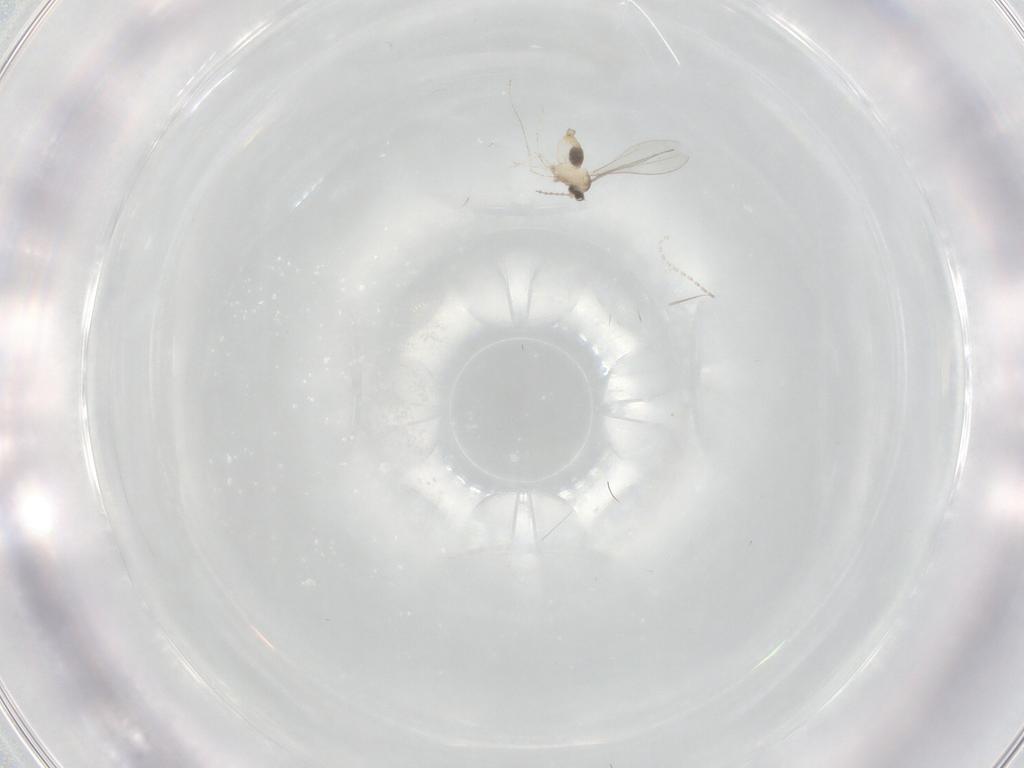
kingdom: Animalia
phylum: Arthropoda
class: Insecta
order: Diptera
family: Cecidomyiidae
